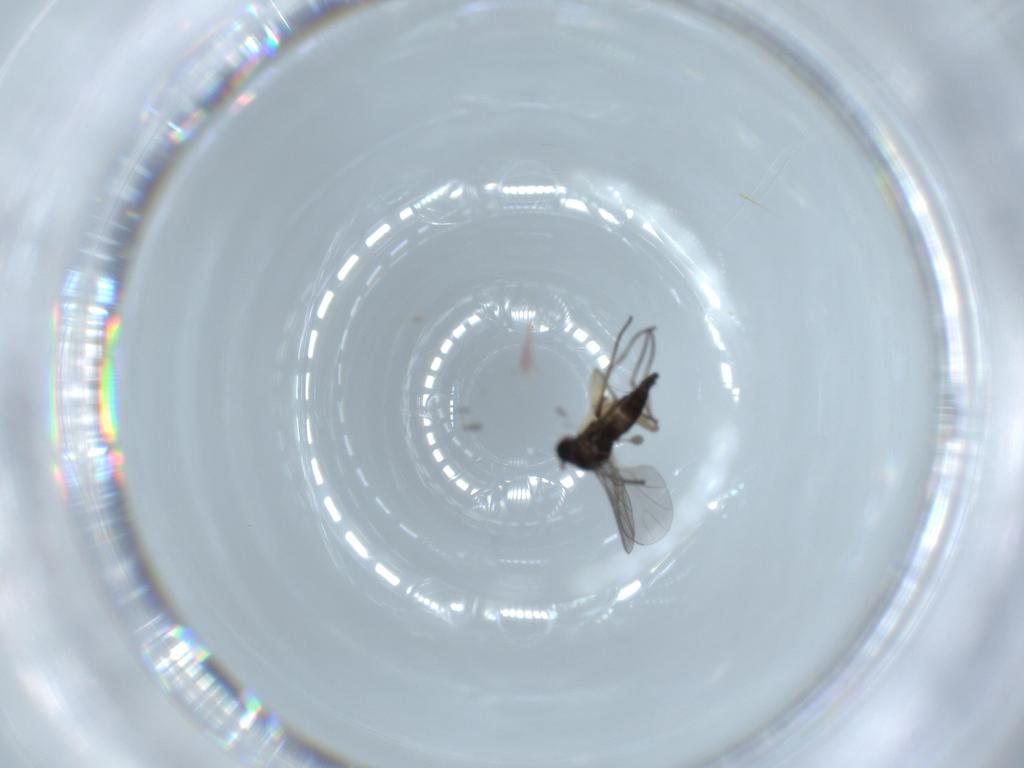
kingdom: Animalia
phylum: Arthropoda
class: Insecta
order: Diptera
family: Sciaridae
